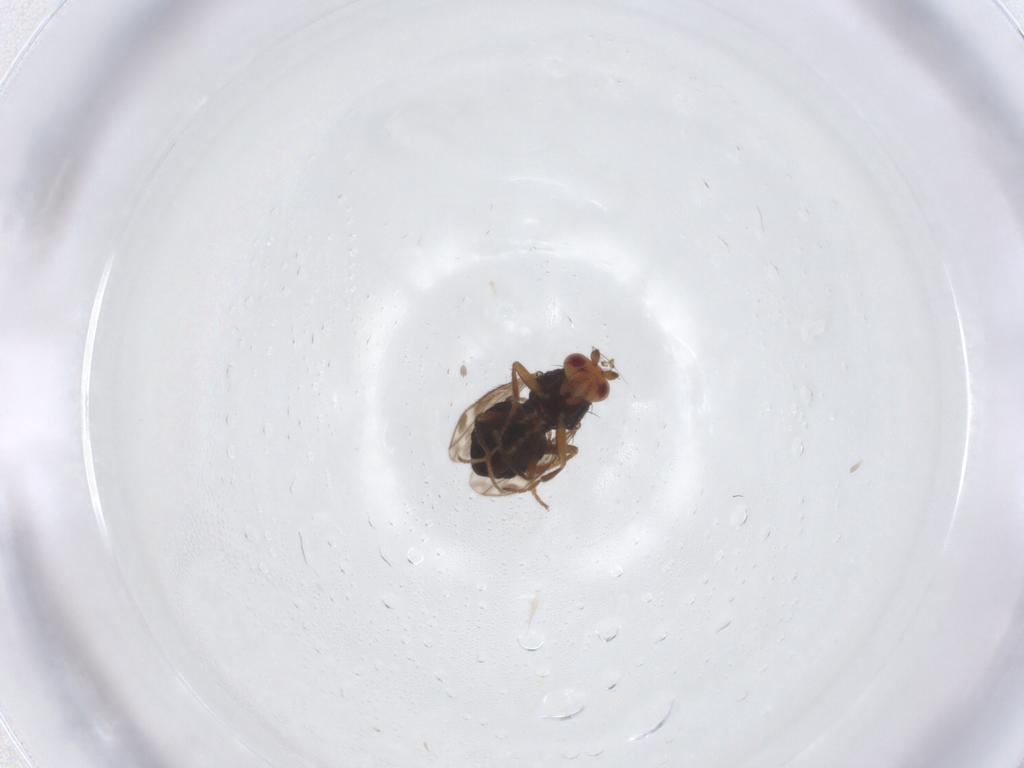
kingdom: Animalia
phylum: Arthropoda
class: Insecta
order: Diptera
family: Sphaeroceridae
